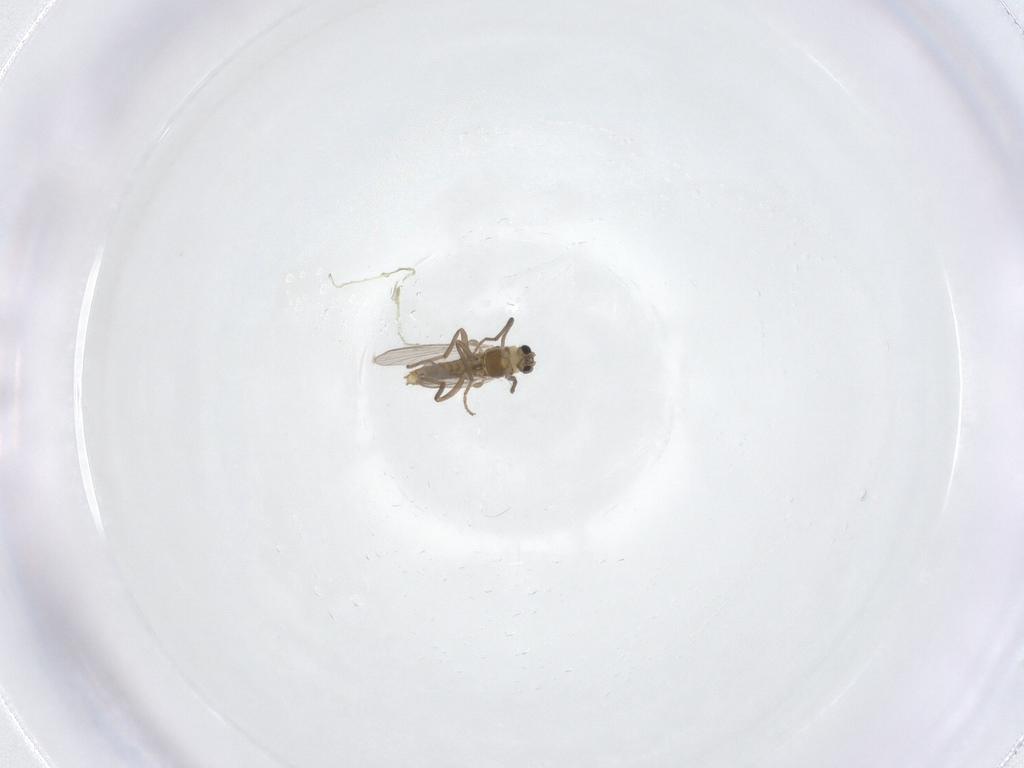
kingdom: Animalia
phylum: Arthropoda
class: Insecta
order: Diptera
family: Chironomidae
